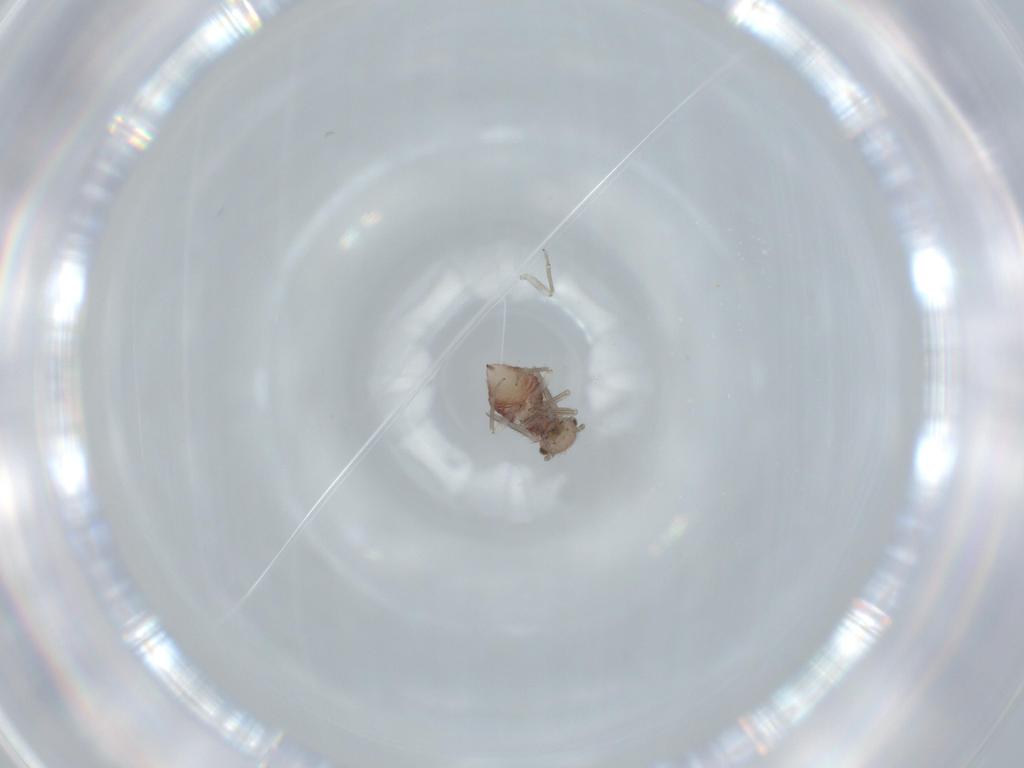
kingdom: Animalia
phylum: Arthropoda
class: Insecta
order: Psocodea
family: Ectopsocidae
